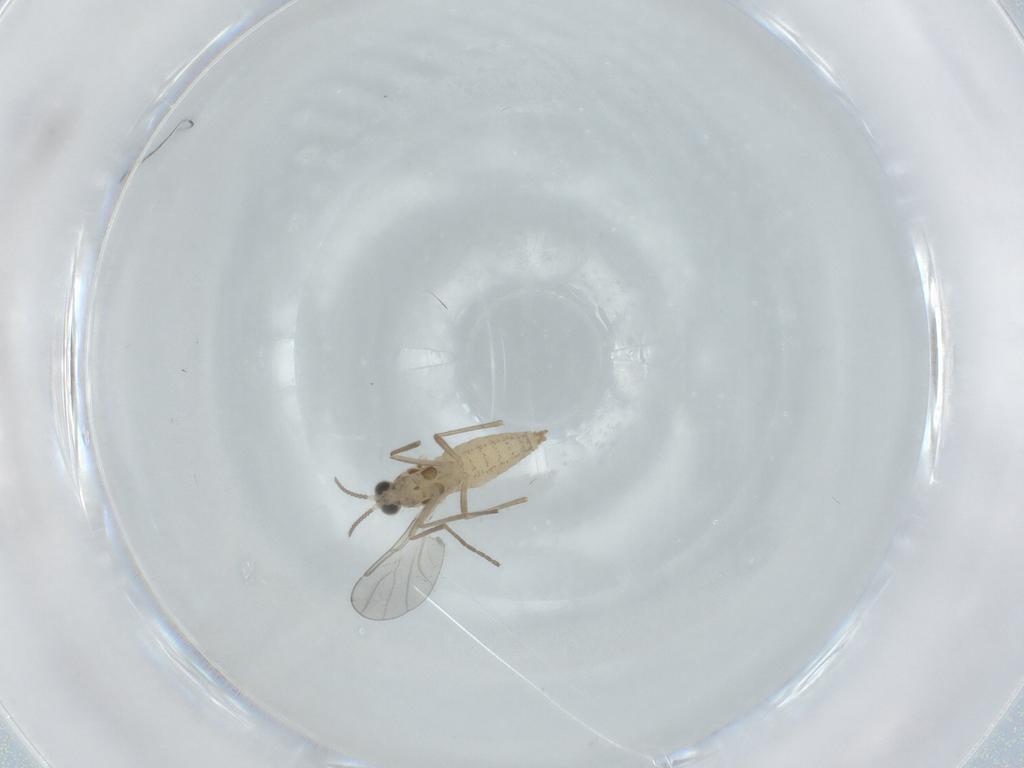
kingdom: Animalia
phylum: Arthropoda
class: Insecta
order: Diptera
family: Cecidomyiidae
